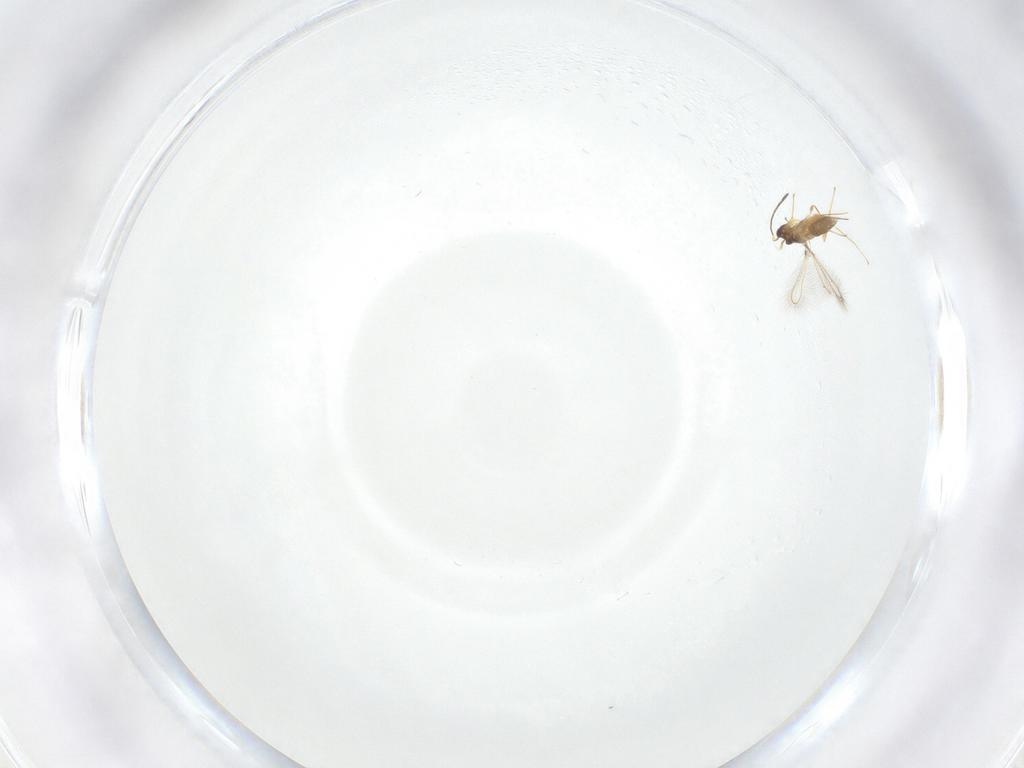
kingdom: Animalia
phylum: Arthropoda
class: Insecta
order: Hymenoptera
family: Mymaridae
